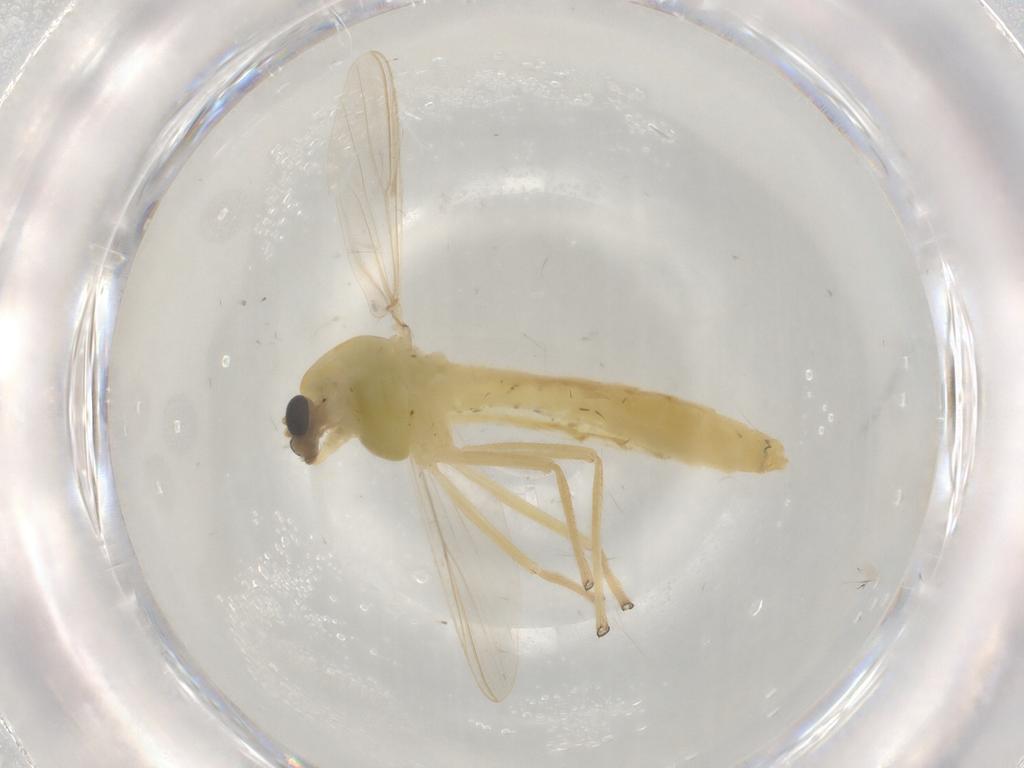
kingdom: Animalia
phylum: Arthropoda
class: Insecta
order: Diptera
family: Chironomidae
